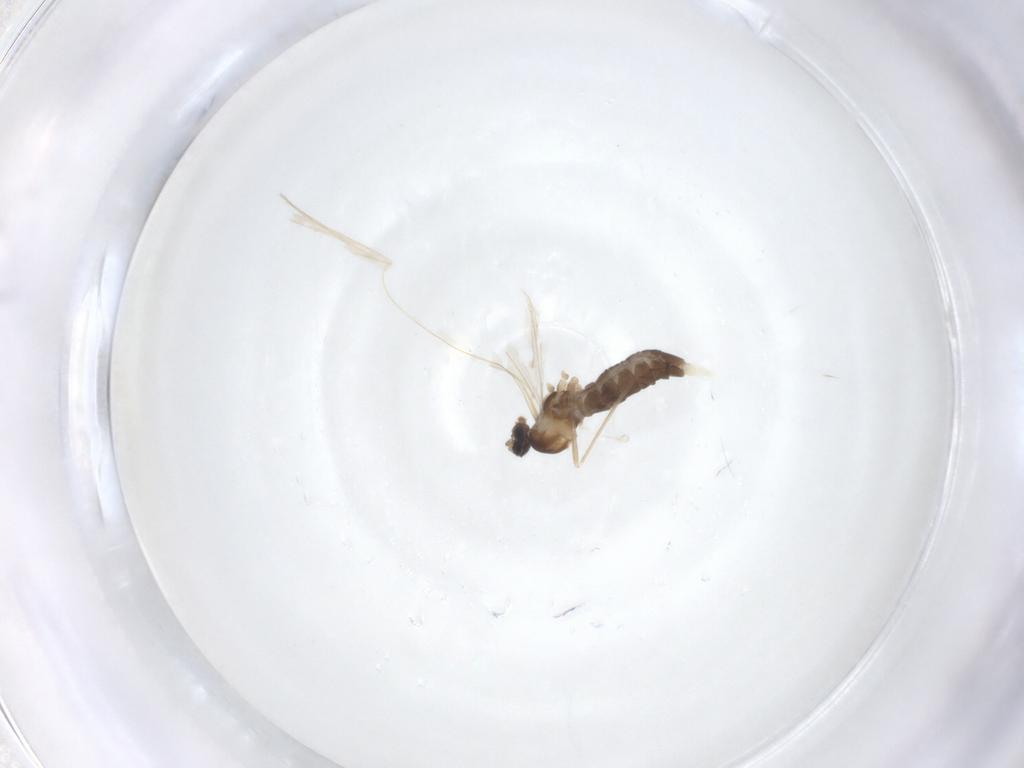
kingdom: Animalia
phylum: Arthropoda
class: Insecta
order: Diptera
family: Cecidomyiidae
